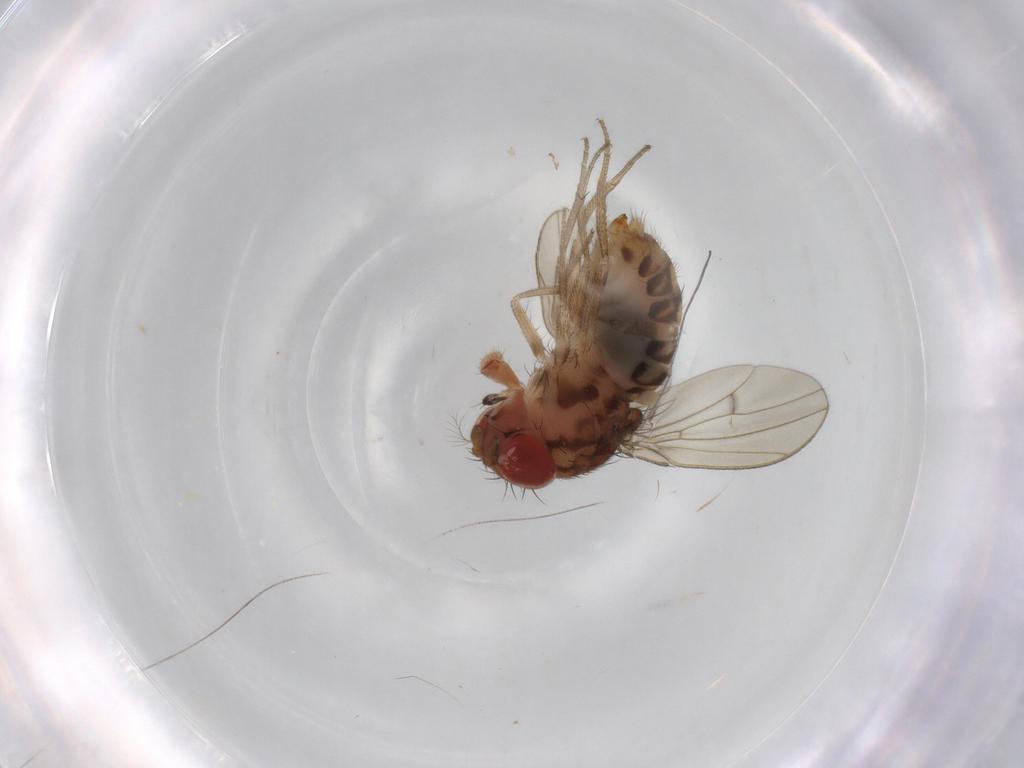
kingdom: Animalia
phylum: Arthropoda
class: Insecta
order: Diptera
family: Drosophilidae
